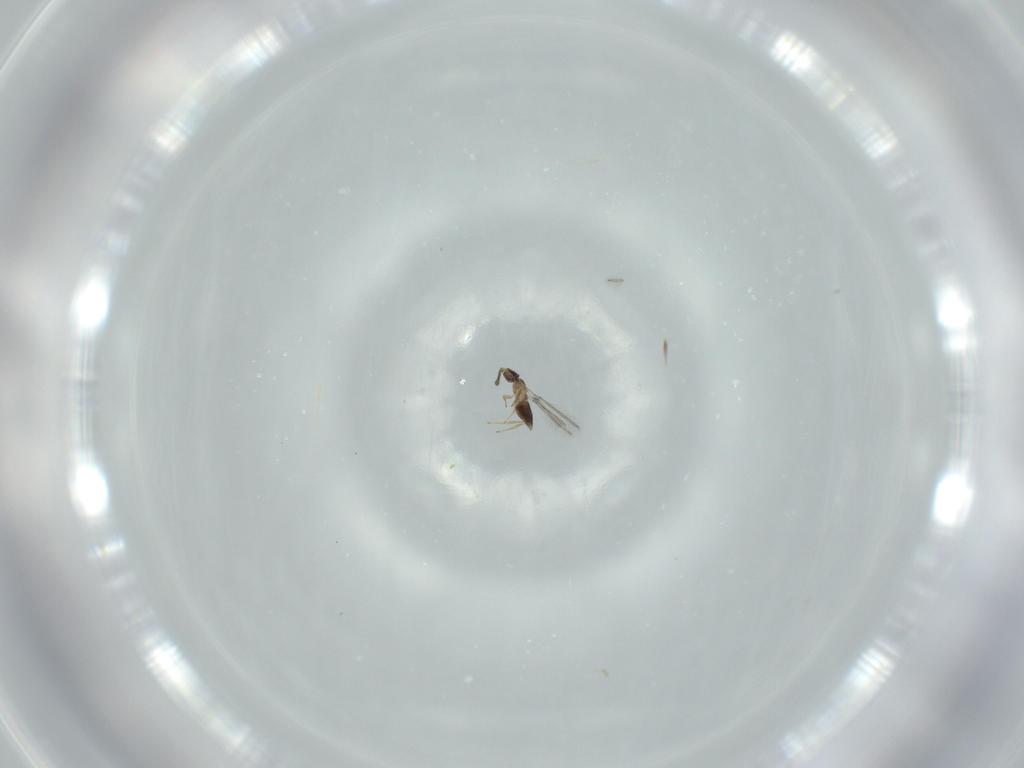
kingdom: Animalia
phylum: Arthropoda
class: Insecta
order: Hymenoptera
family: Mymaridae
